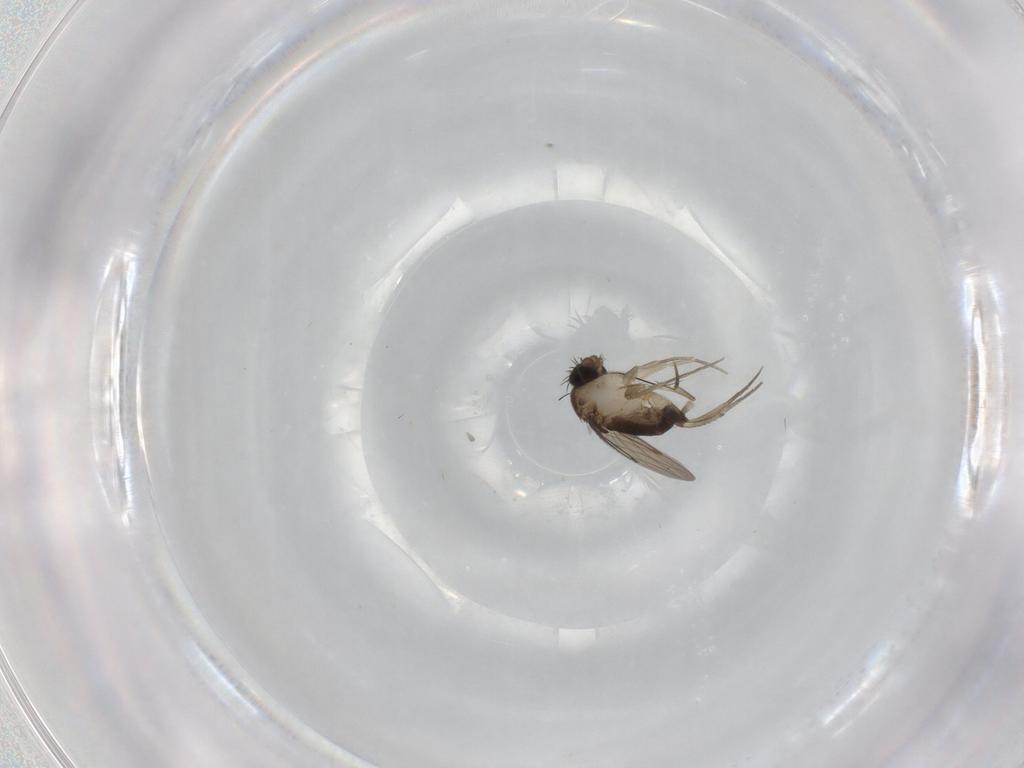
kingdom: Animalia
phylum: Arthropoda
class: Insecta
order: Diptera
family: Phoridae
